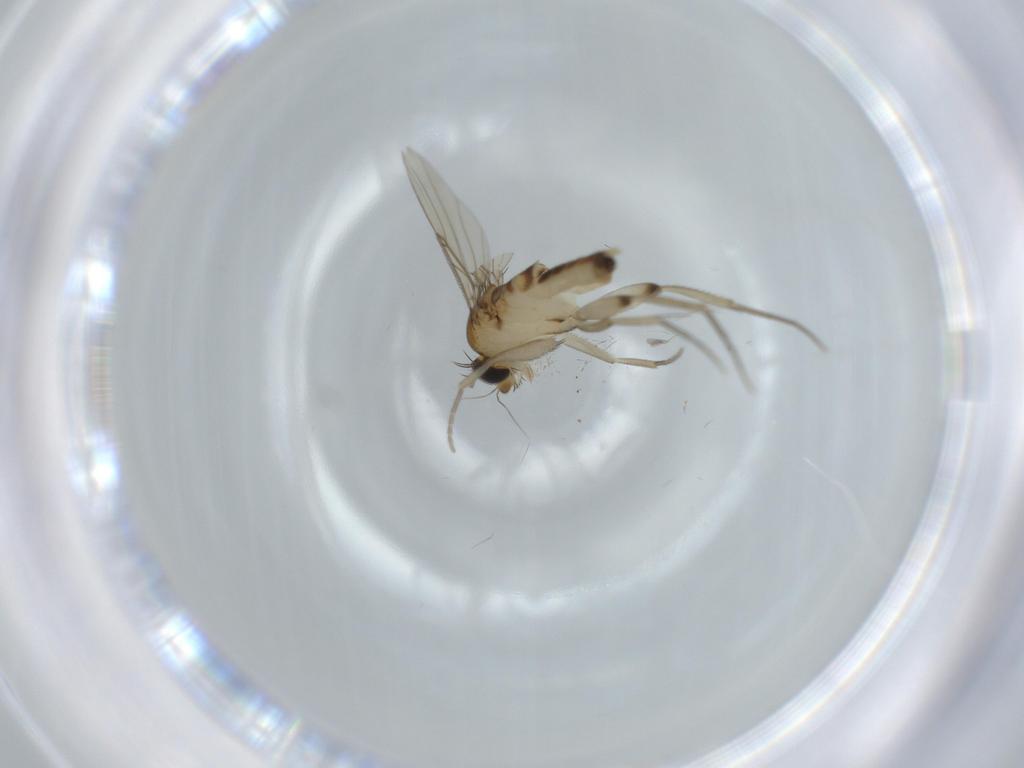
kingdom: Animalia
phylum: Arthropoda
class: Insecta
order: Diptera
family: Phoridae
